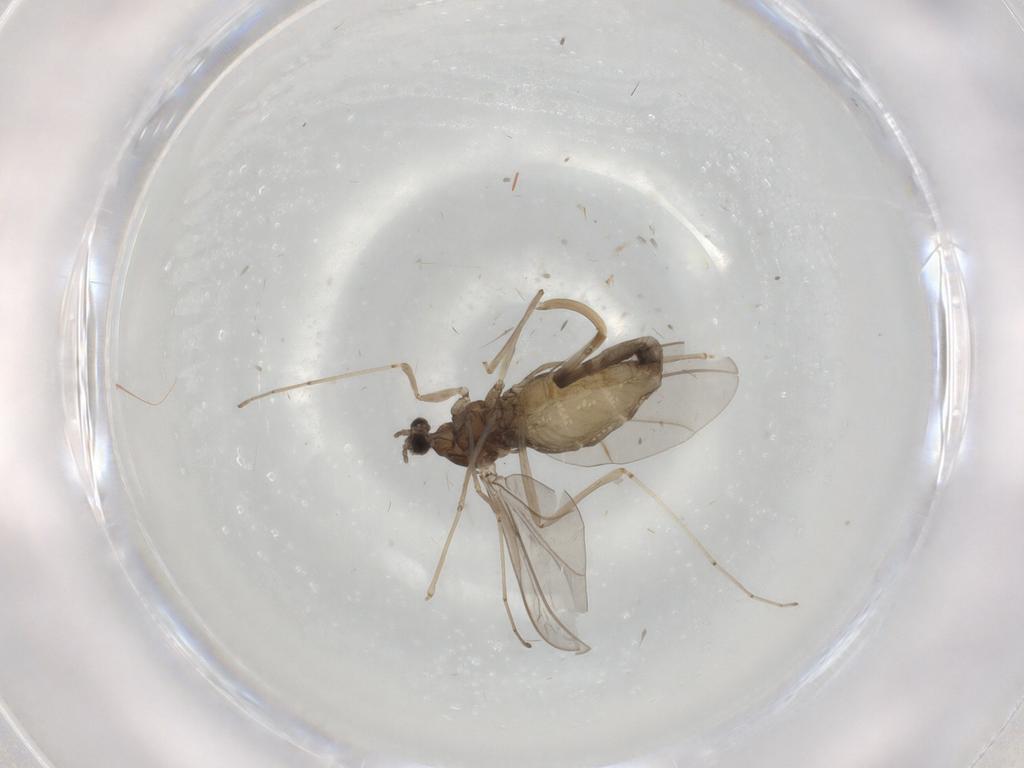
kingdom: Animalia
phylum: Arthropoda
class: Insecta
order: Diptera
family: Cecidomyiidae
